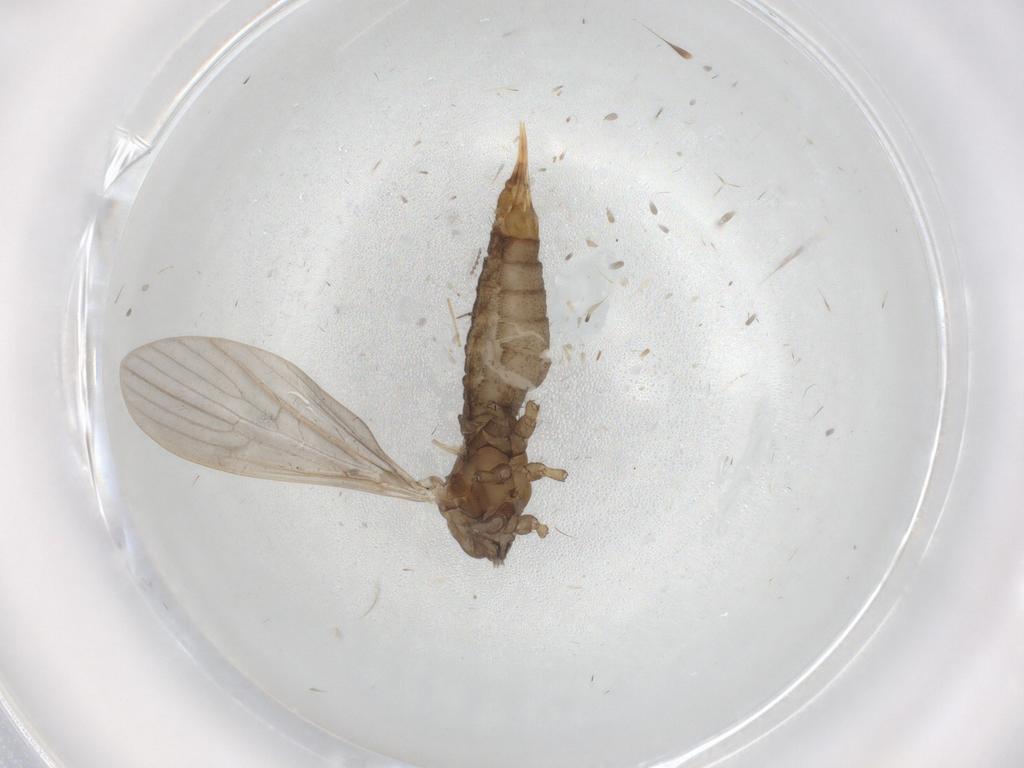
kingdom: Animalia
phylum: Arthropoda
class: Insecta
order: Diptera
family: Limoniidae
